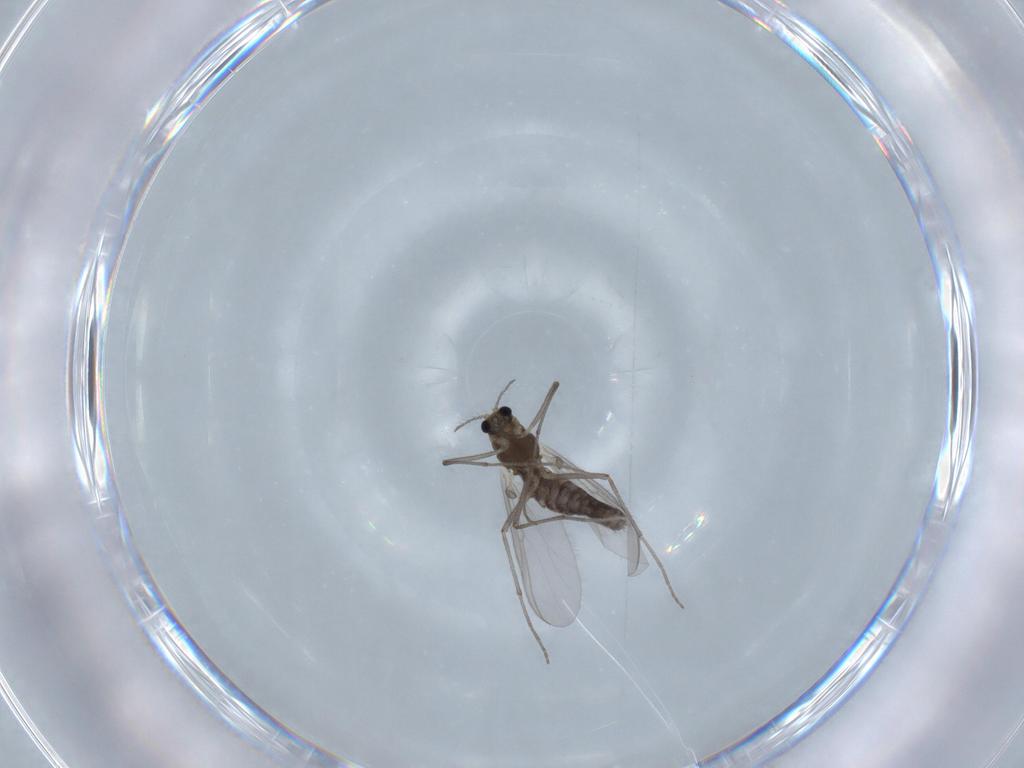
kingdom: Animalia
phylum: Arthropoda
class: Insecta
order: Diptera
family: Chironomidae
